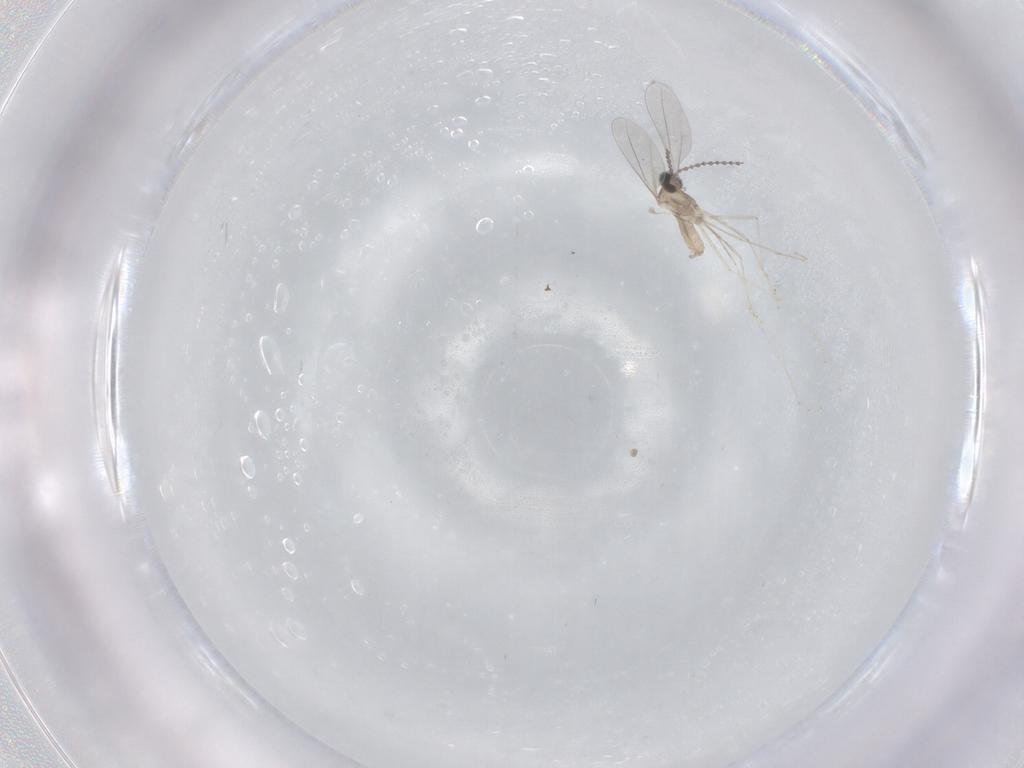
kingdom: Animalia
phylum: Arthropoda
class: Insecta
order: Diptera
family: Cecidomyiidae
